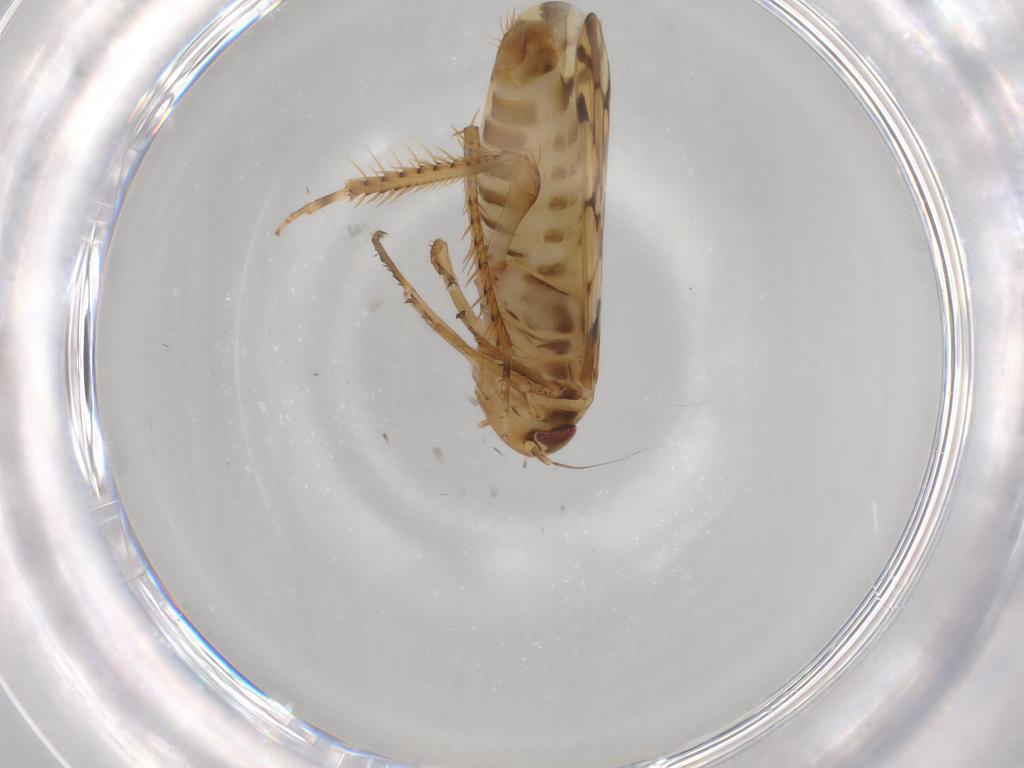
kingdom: Animalia
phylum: Arthropoda
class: Insecta
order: Hemiptera
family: Cicadellidae
